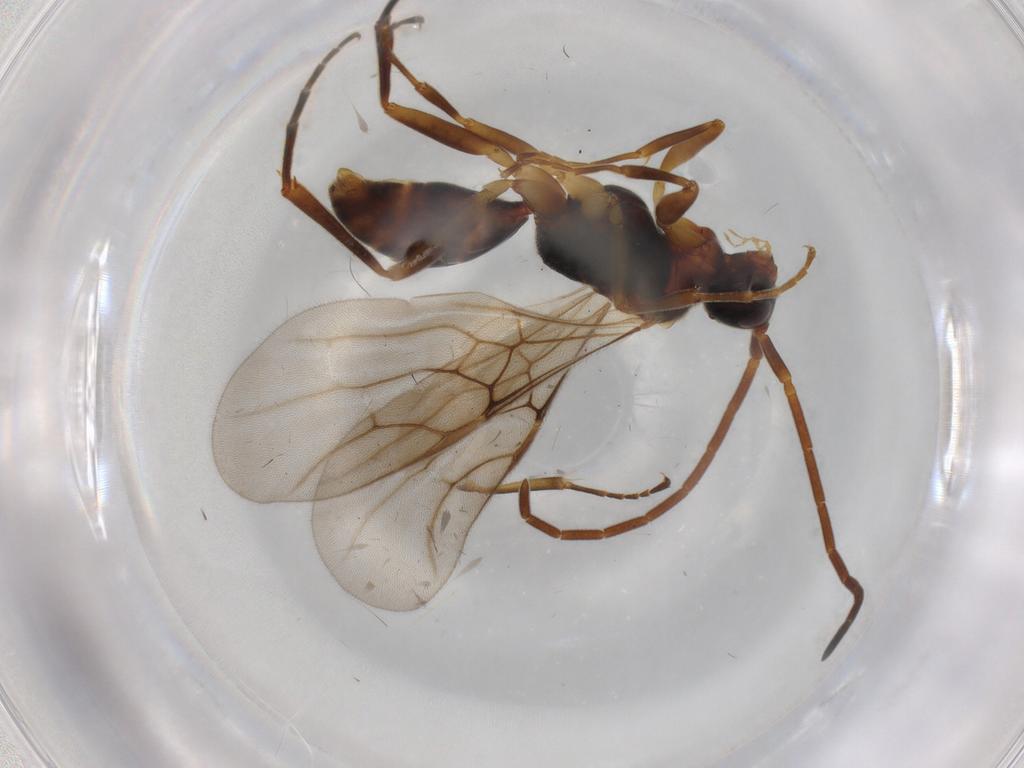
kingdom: Animalia
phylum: Arthropoda
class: Insecta
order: Hymenoptera
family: Embolemidae
